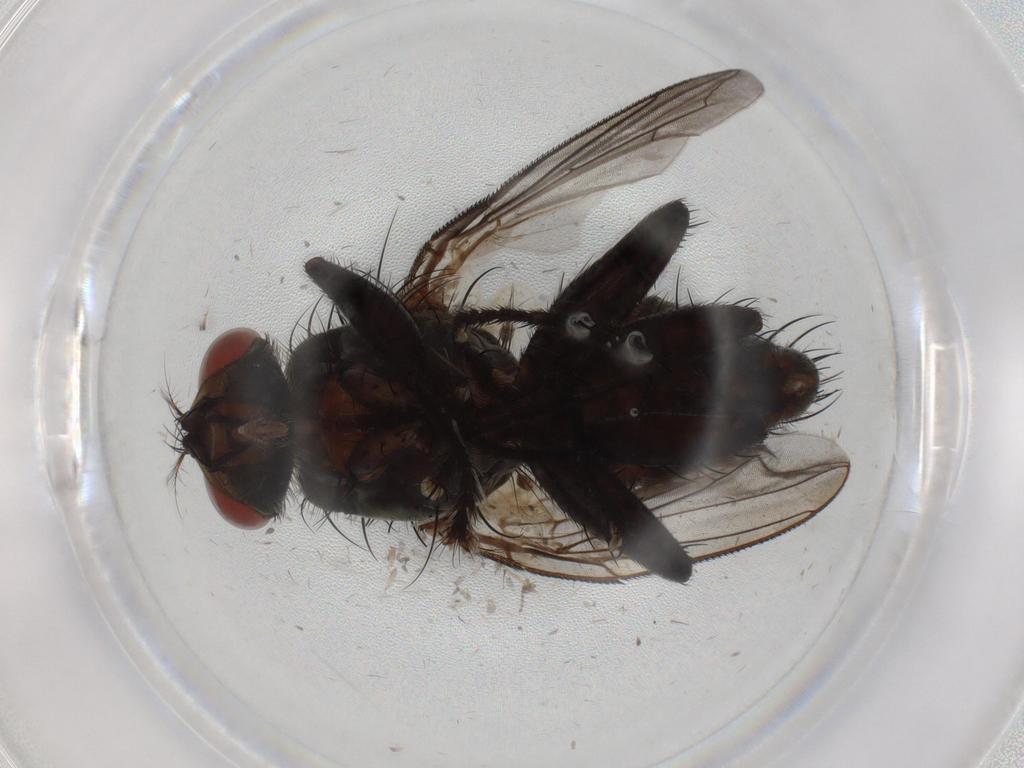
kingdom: Animalia
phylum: Arthropoda
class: Insecta
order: Diptera
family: Sarcophagidae
